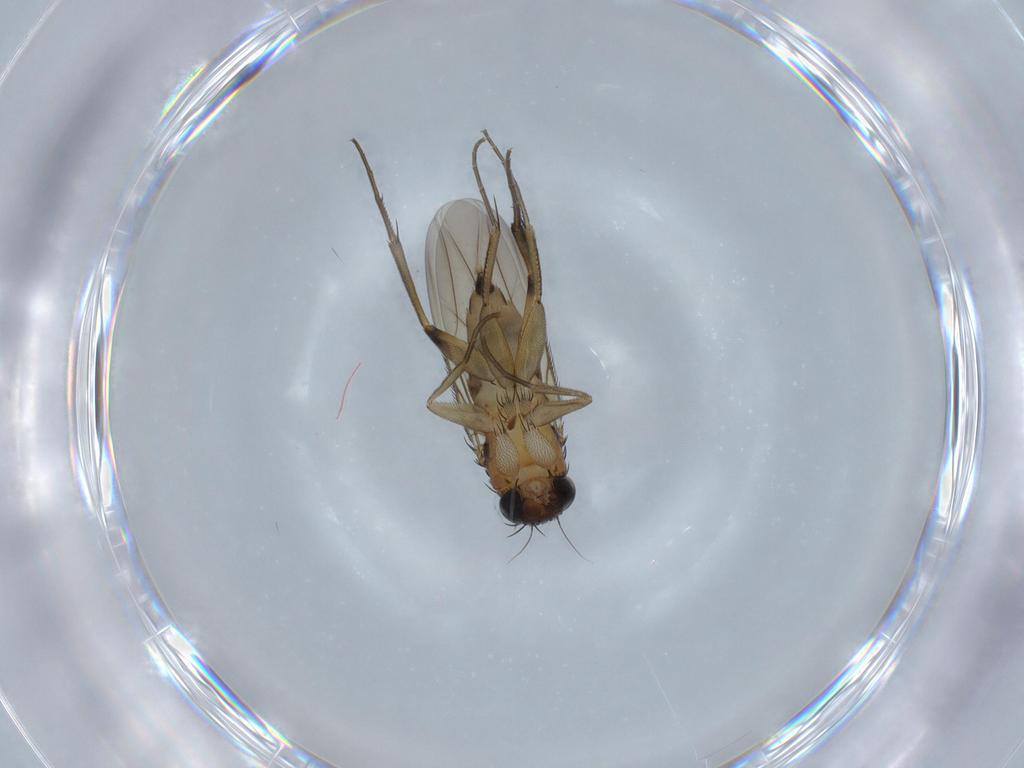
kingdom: Animalia
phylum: Arthropoda
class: Insecta
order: Diptera
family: Phoridae
